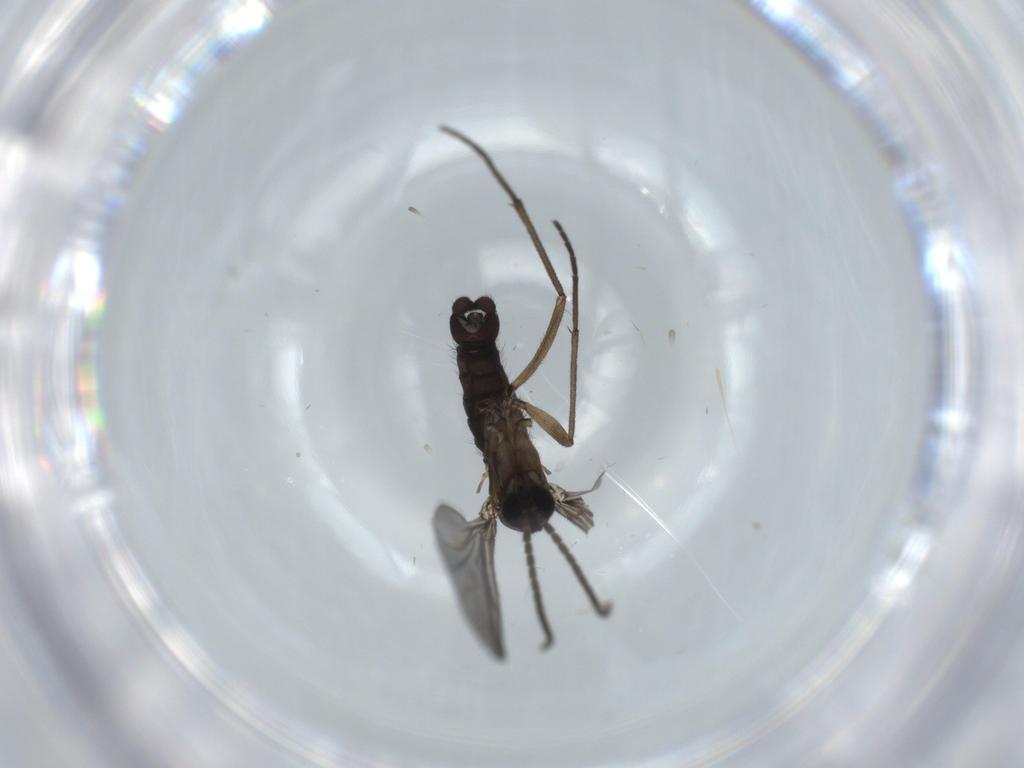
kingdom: Animalia
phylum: Arthropoda
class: Insecta
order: Diptera
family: Sciaridae
